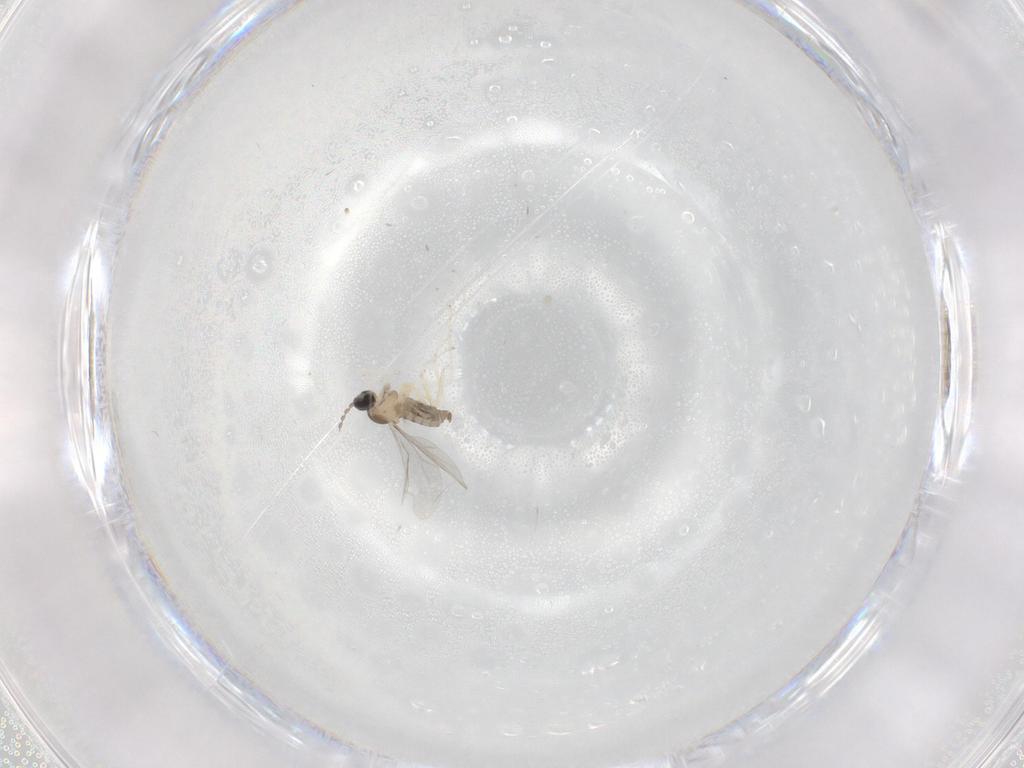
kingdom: Animalia
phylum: Arthropoda
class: Insecta
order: Diptera
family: Cecidomyiidae
